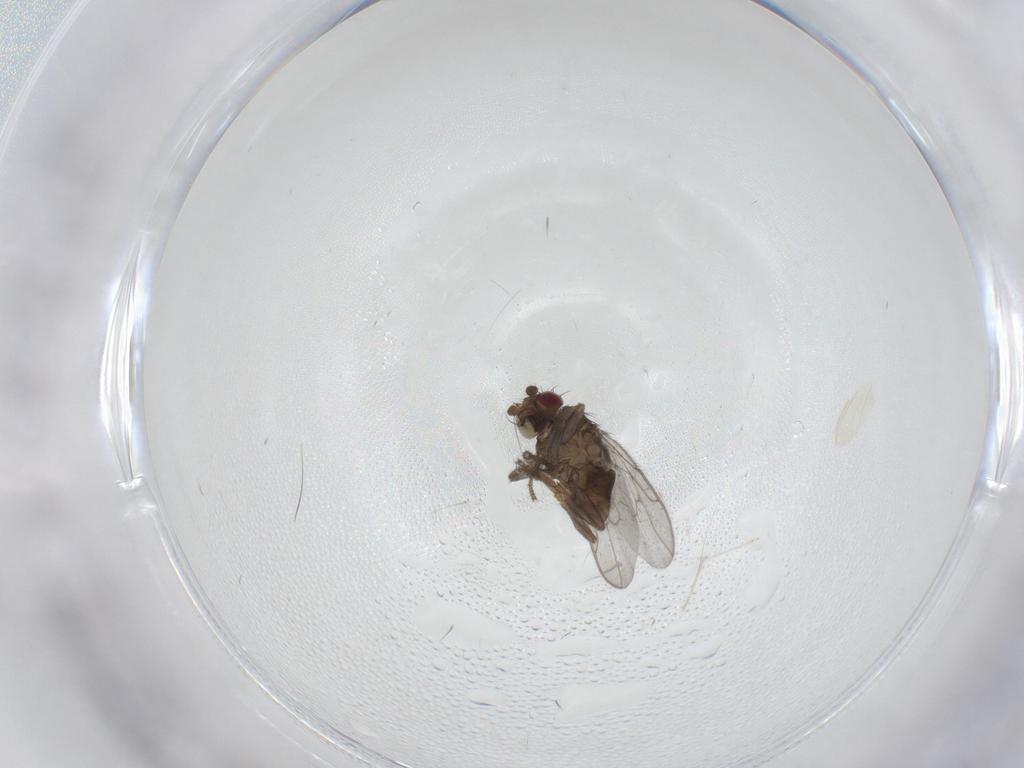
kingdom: Animalia
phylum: Arthropoda
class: Insecta
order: Diptera
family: Sphaeroceridae
